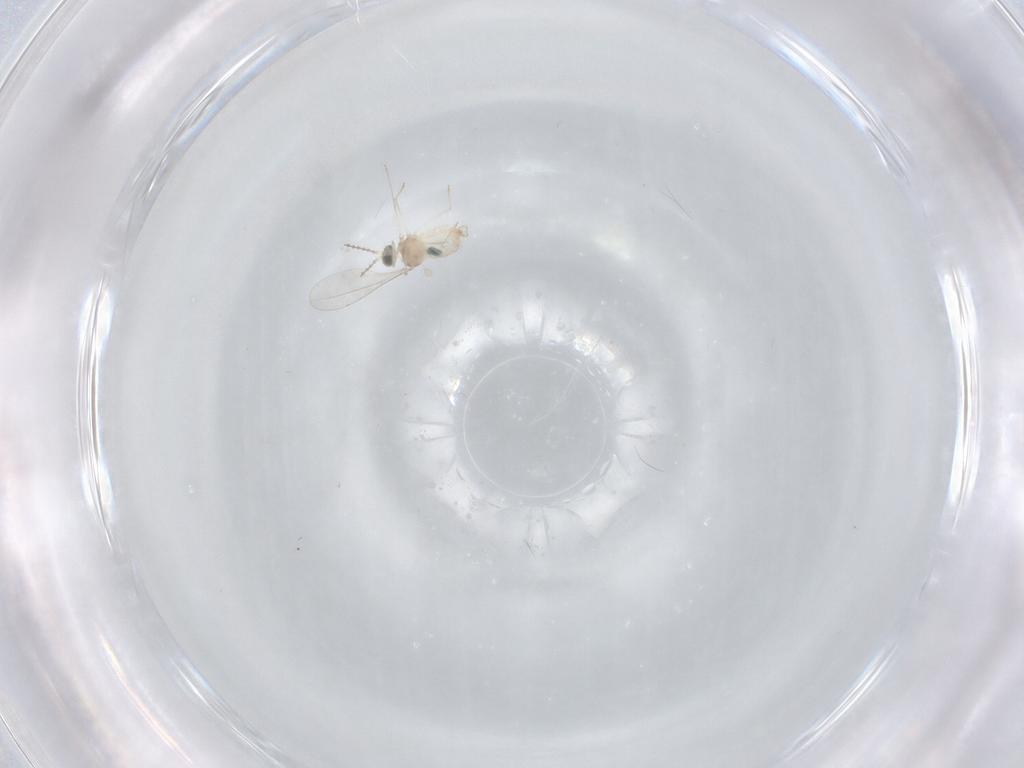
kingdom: Animalia
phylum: Arthropoda
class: Insecta
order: Diptera
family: Cecidomyiidae
